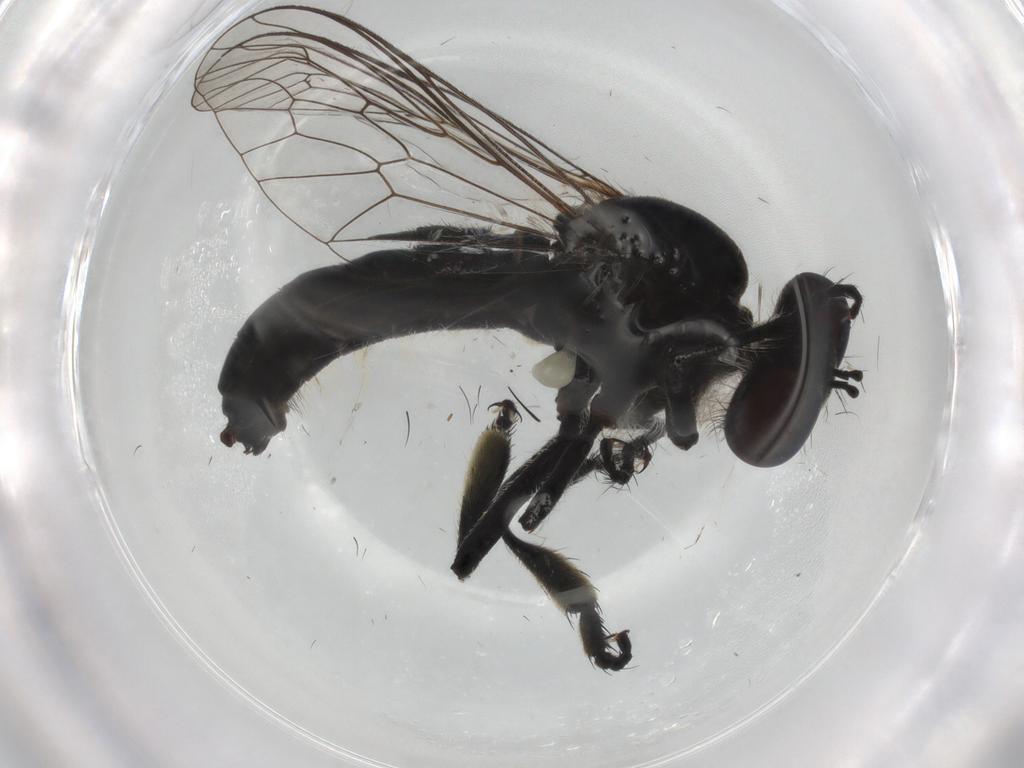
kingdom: Animalia
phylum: Arthropoda
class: Insecta
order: Diptera
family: Asilidae
